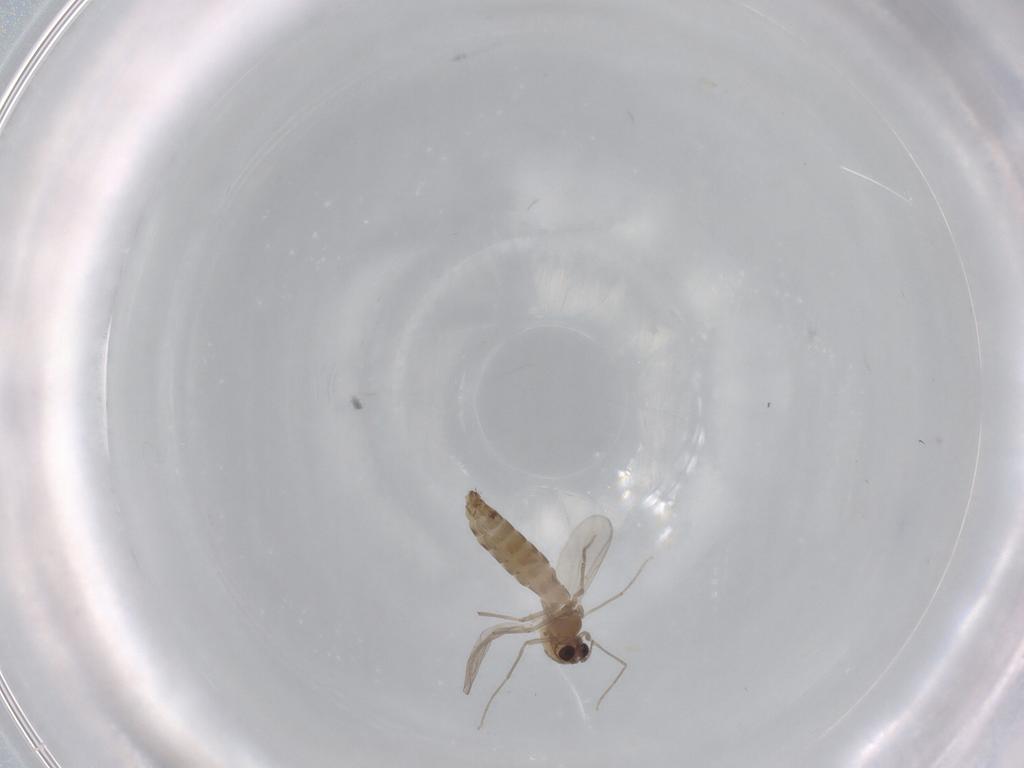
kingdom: Animalia
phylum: Arthropoda
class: Insecta
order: Diptera
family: Chironomidae
